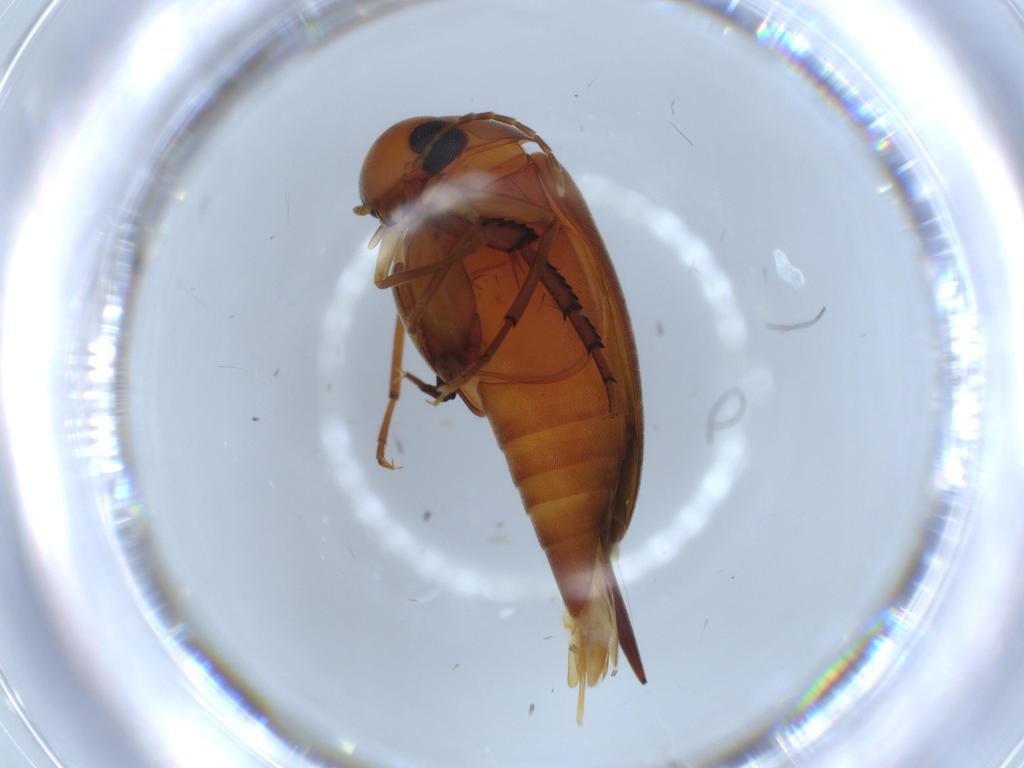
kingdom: Animalia
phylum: Arthropoda
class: Insecta
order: Coleoptera
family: Mordellidae
